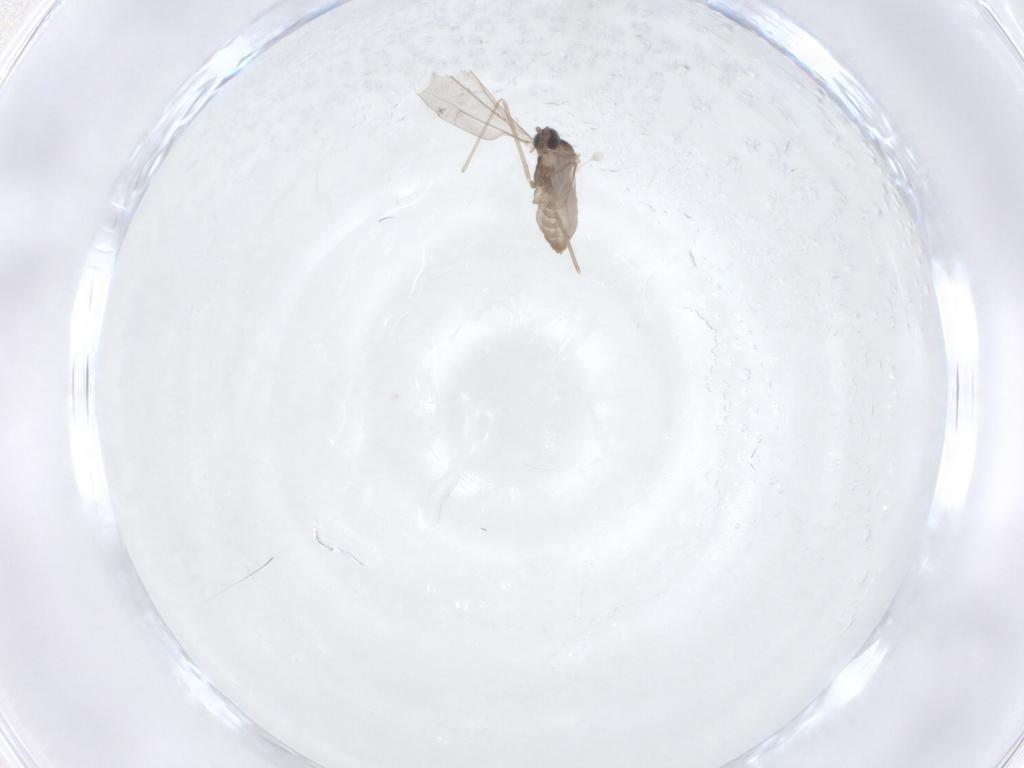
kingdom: Animalia
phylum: Arthropoda
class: Insecta
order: Diptera
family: Cecidomyiidae
